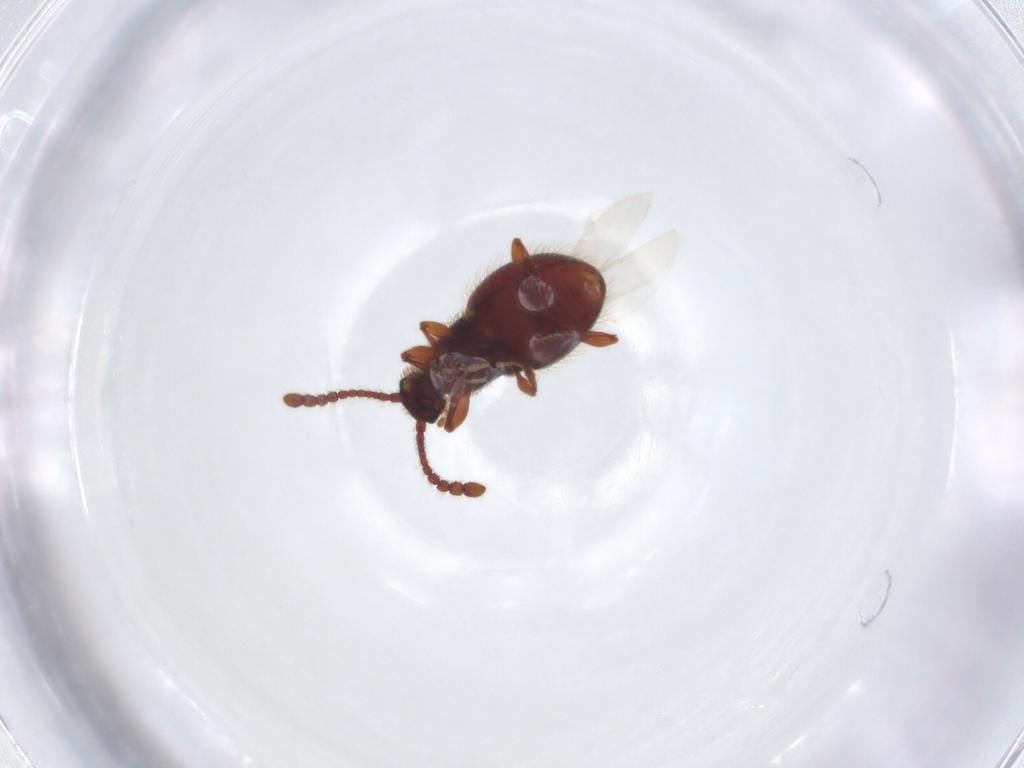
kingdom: Animalia
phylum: Arthropoda
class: Insecta
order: Coleoptera
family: Staphylinidae
